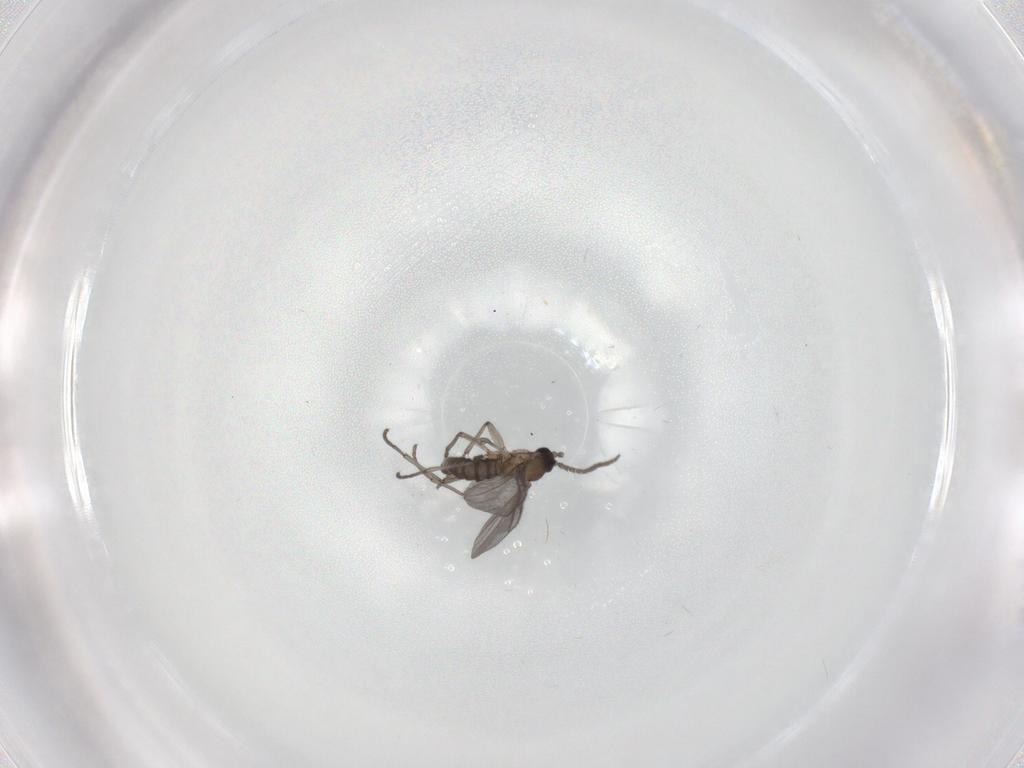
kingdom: Animalia
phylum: Arthropoda
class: Insecta
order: Diptera
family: Sciaridae
